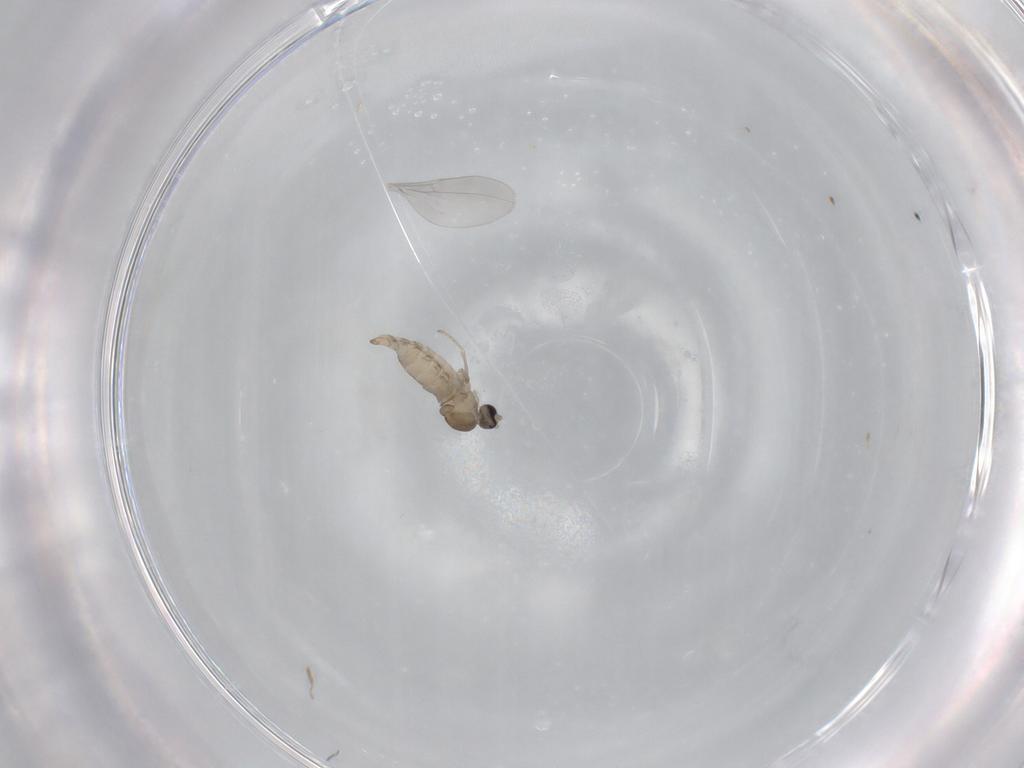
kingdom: Animalia
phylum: Arthropoda
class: Insecta
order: Diptera
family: Cecidomyiidae
